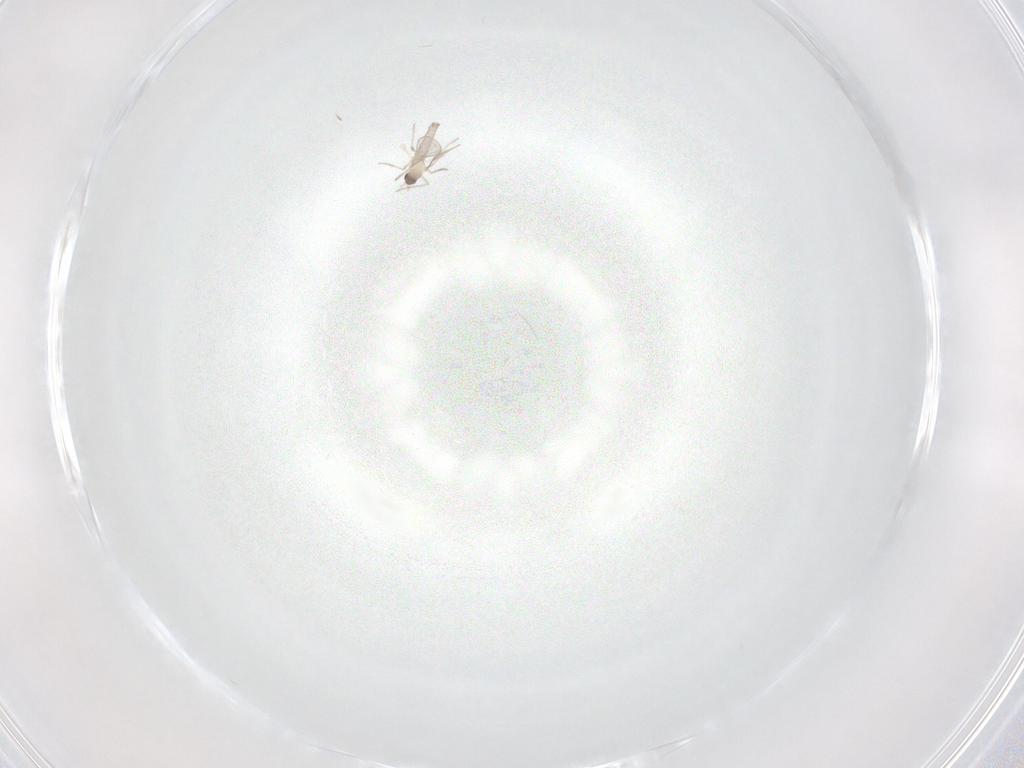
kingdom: Animalia
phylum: Arthropoda
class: Insecta
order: Diptera
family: Cecidomyiidae
